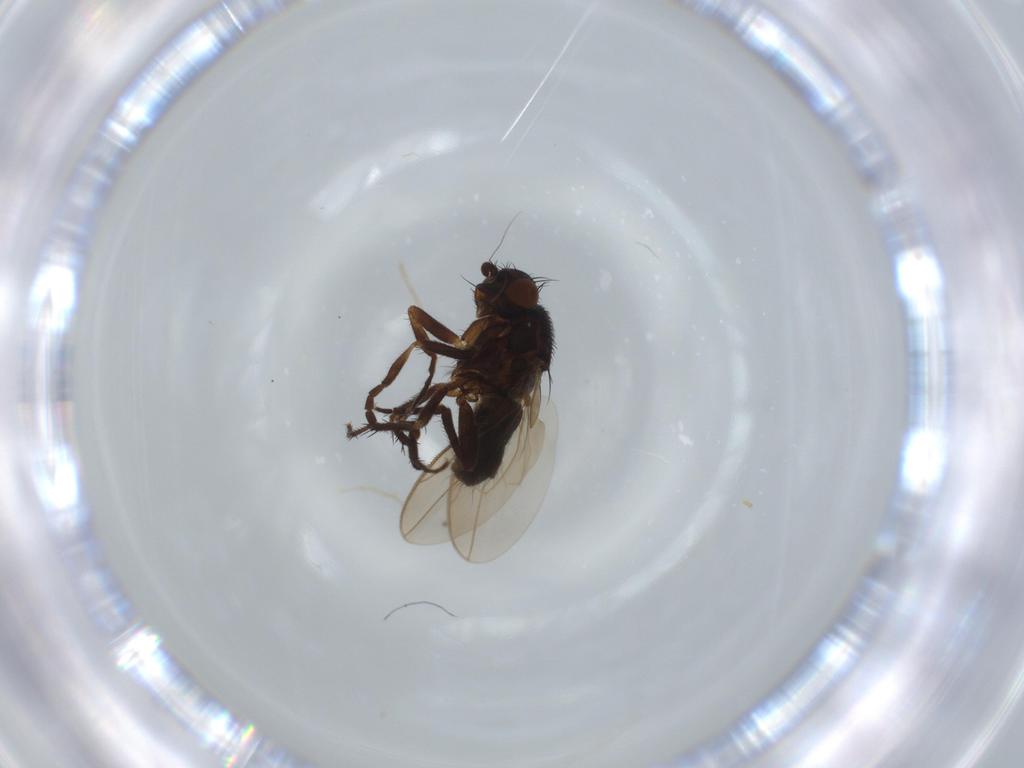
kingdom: Animalia
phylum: Arthropoda
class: Insecta
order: Diptera
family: Sphaeroceridae
